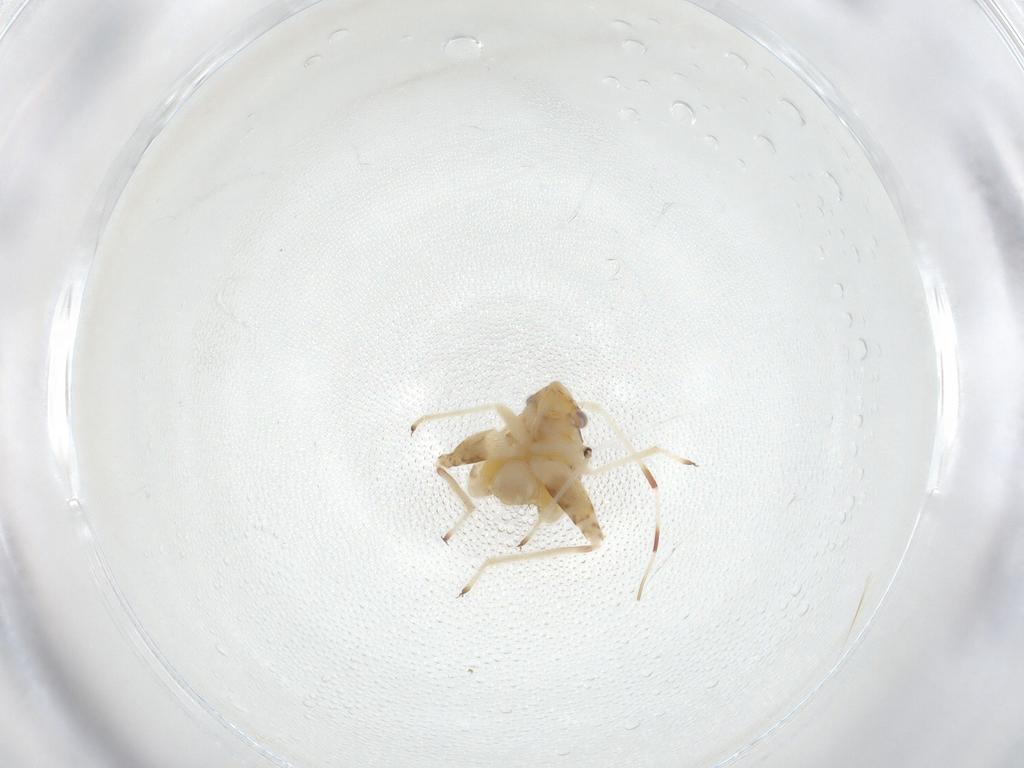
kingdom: Animalia
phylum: Arthropoda
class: Insecta
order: Hemiptera
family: Miridae
